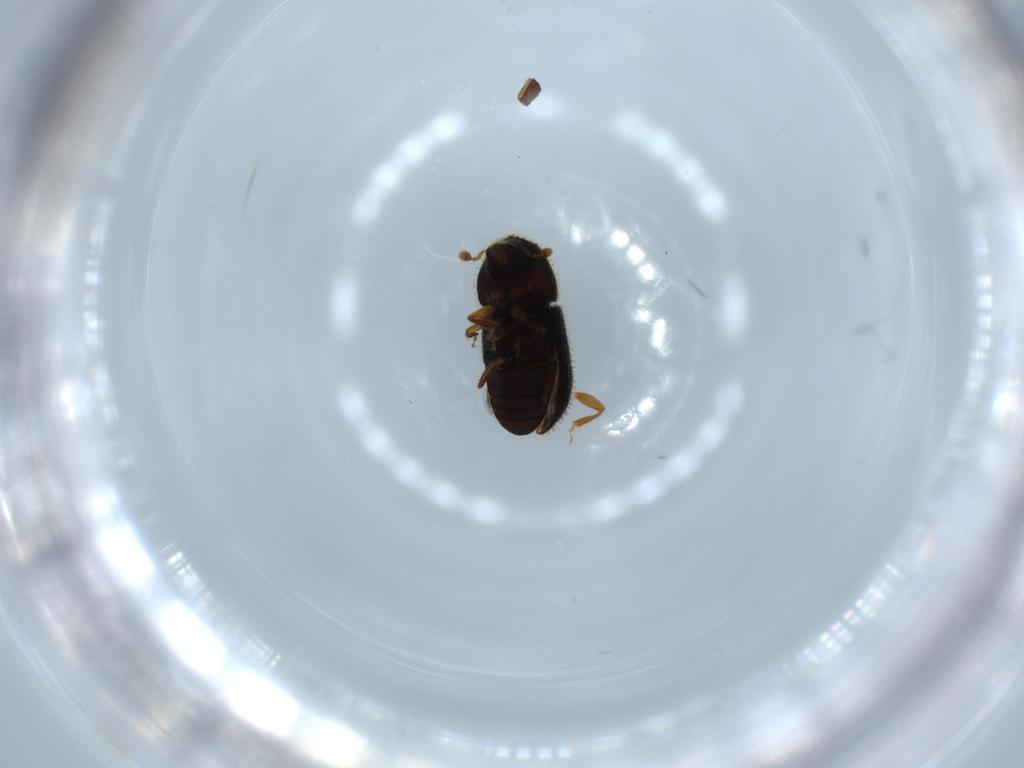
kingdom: Animalia
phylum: Arthropoda
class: Insecta
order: Coleoptera
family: Curculionidae
